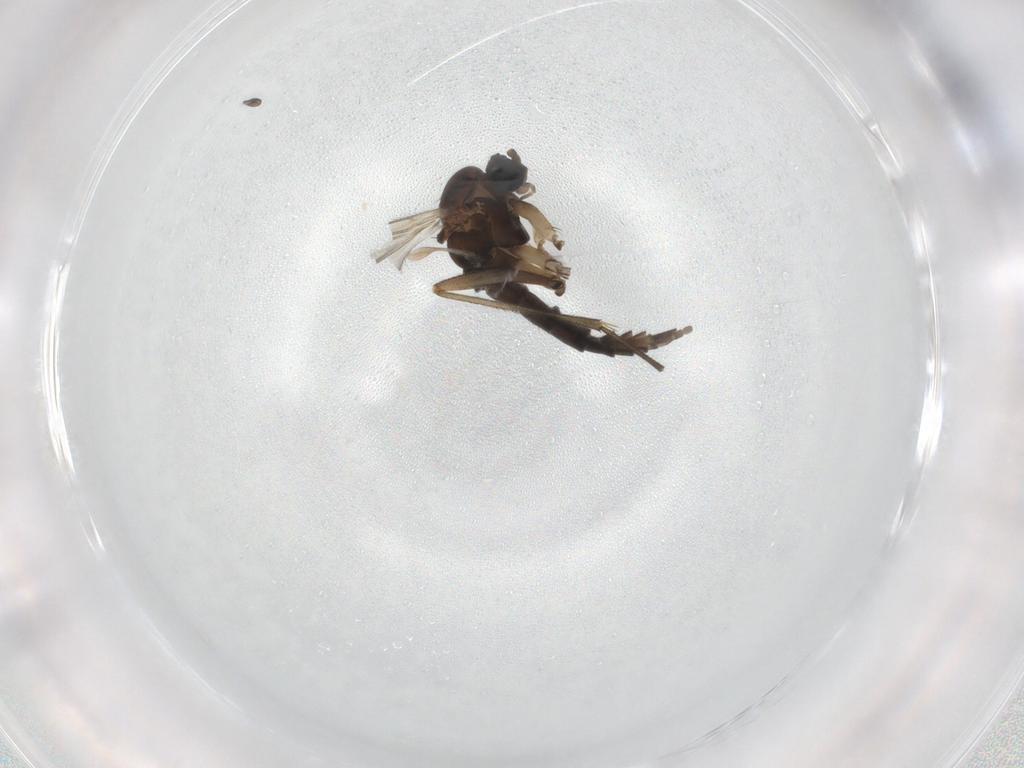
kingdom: Animalia
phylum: Arthropoda
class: Insecta
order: Diptera
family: Sciaridae
